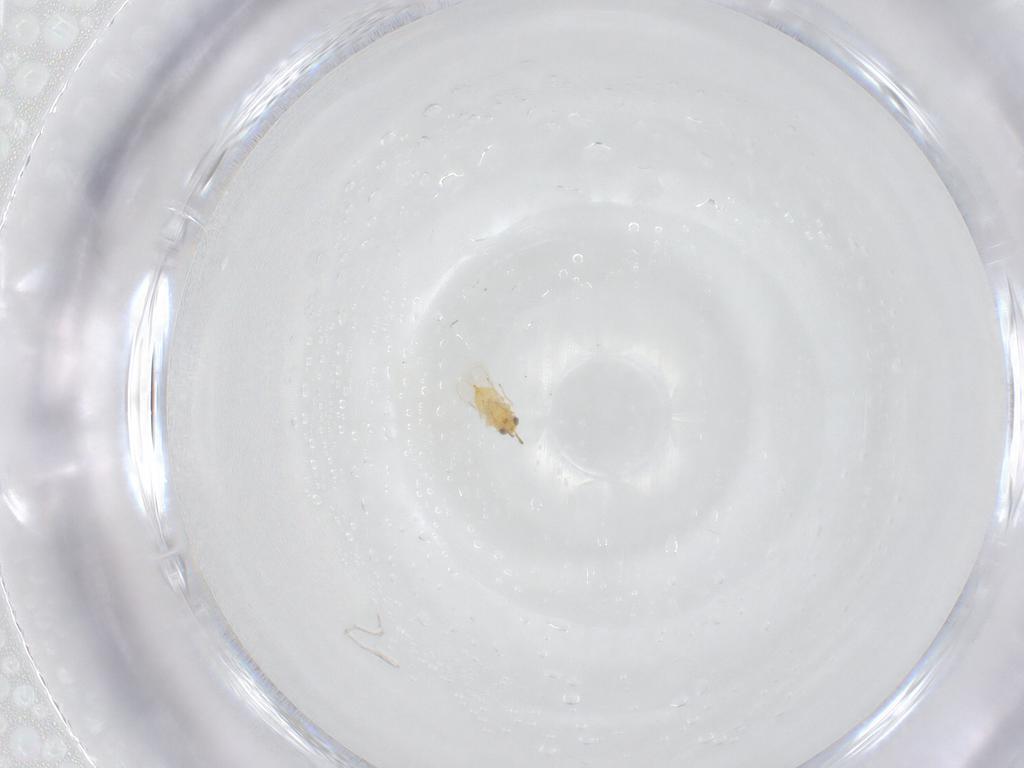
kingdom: Animalia
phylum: Arthropoda
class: Insecta
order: Hymenoptera
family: Aphelinidae
